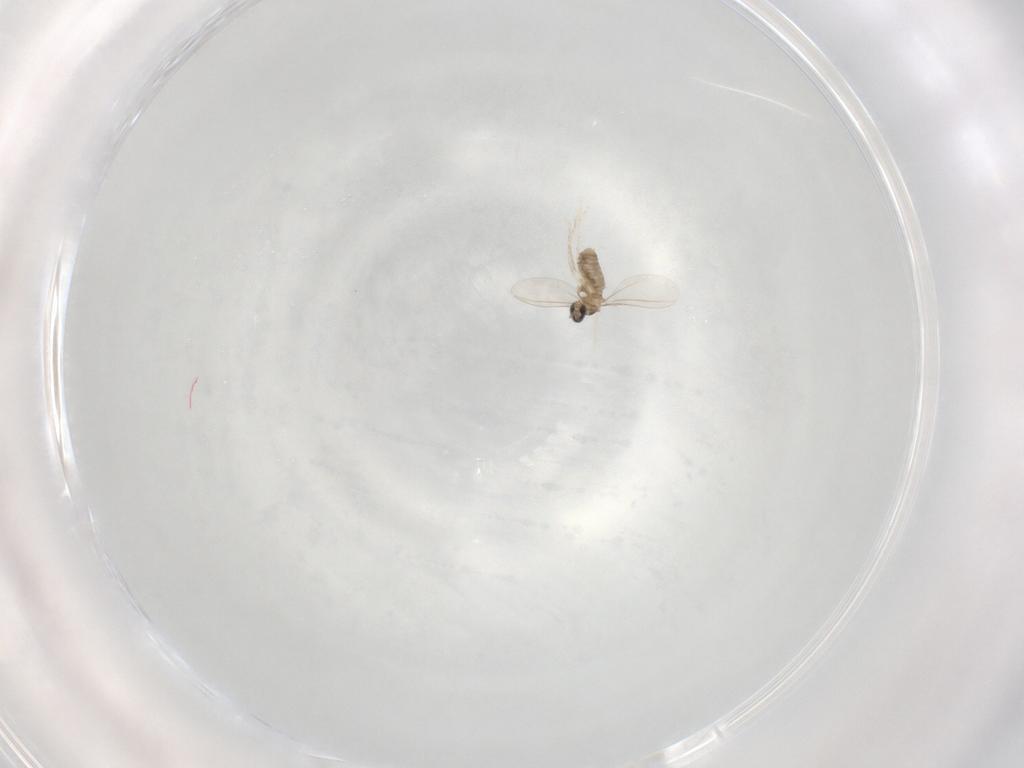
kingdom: Animalia
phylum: Arthropoda
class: Insecta
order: Diptera
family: Cecidomyiidae
